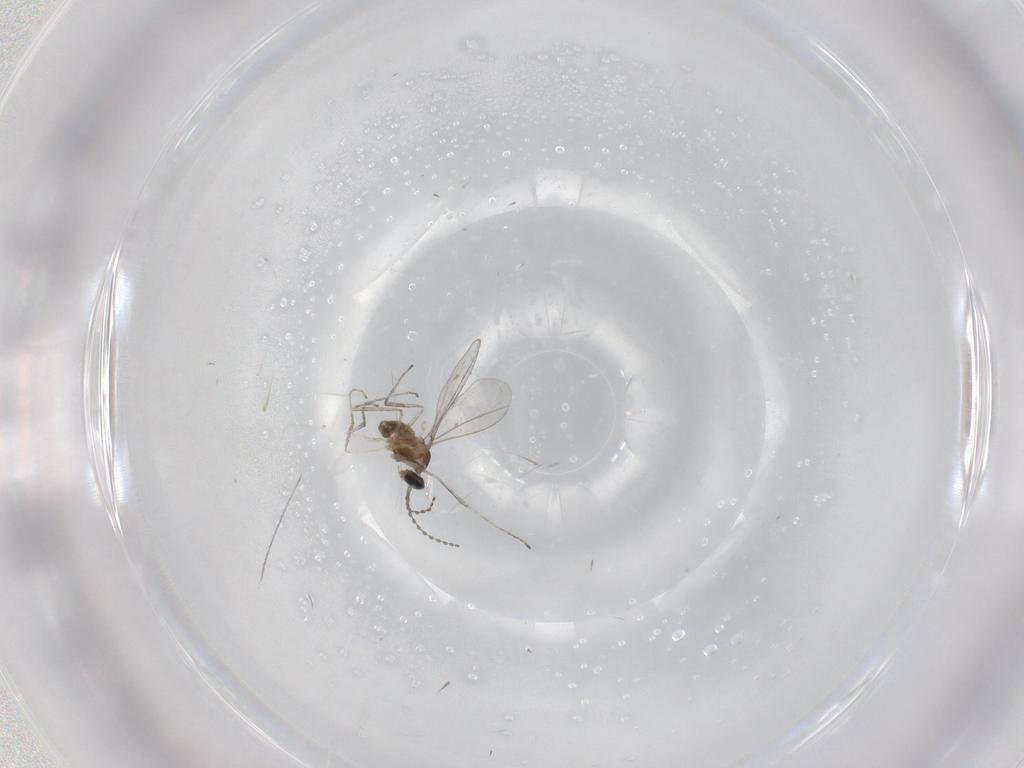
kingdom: Animalia
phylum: Arthropoda
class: Insecta
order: Diptera
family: Cecidomyiidae
